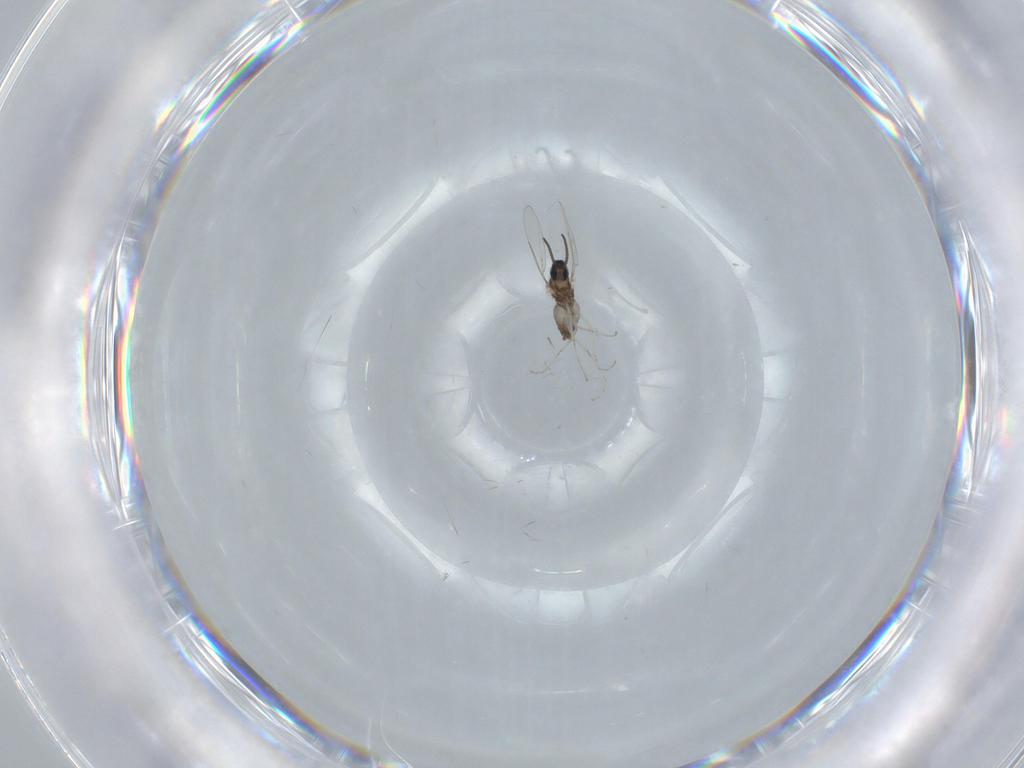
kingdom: Animalia
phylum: Arthropoda
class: Insecta
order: Diptera
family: Cecidomyiidae
